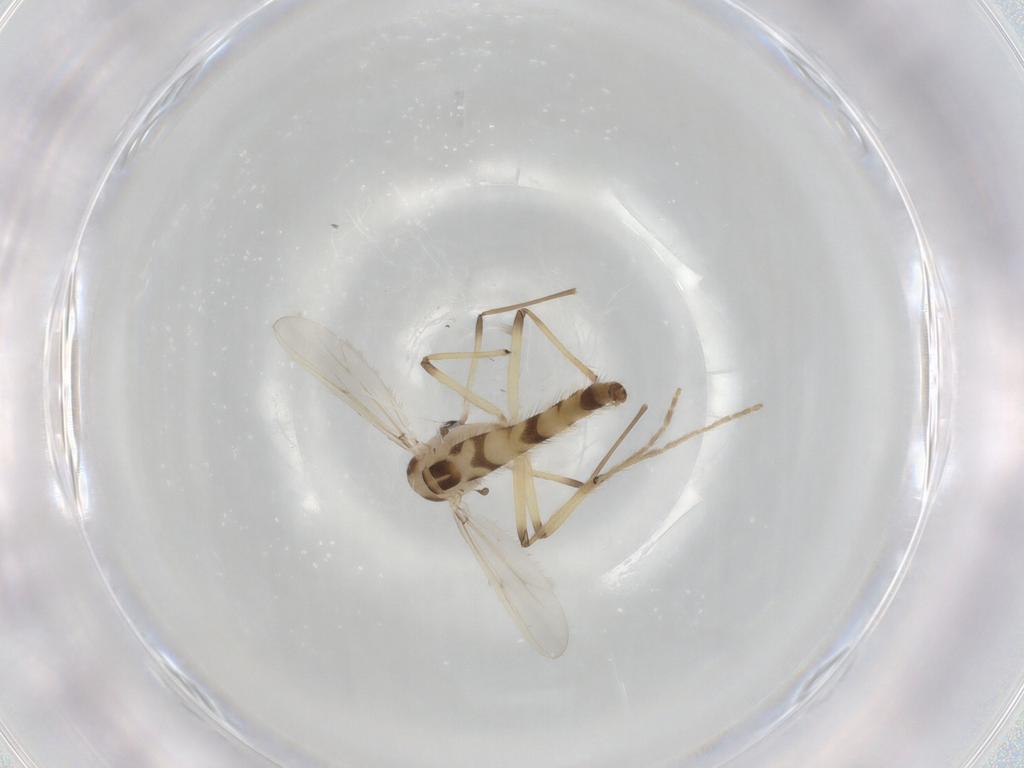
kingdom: Animalia
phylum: Arthropoda
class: Insecta
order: Diptera
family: Chironomidae
